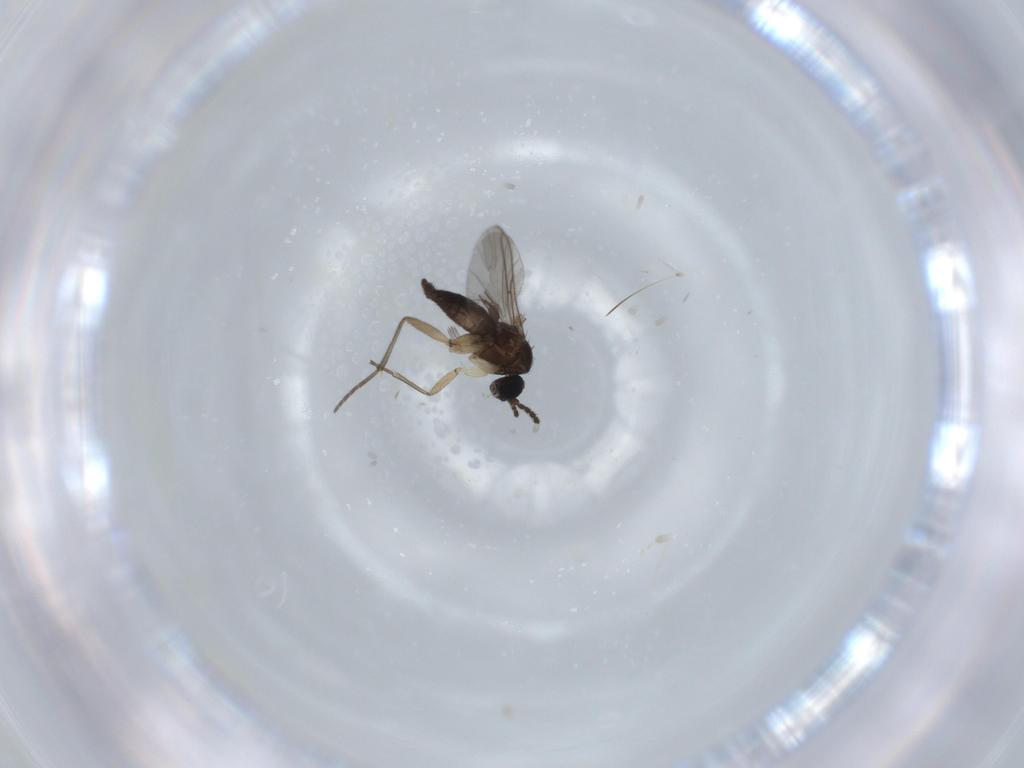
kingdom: Animalia
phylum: Arthropoda
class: Insecta
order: Diptera
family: Sciaridae
